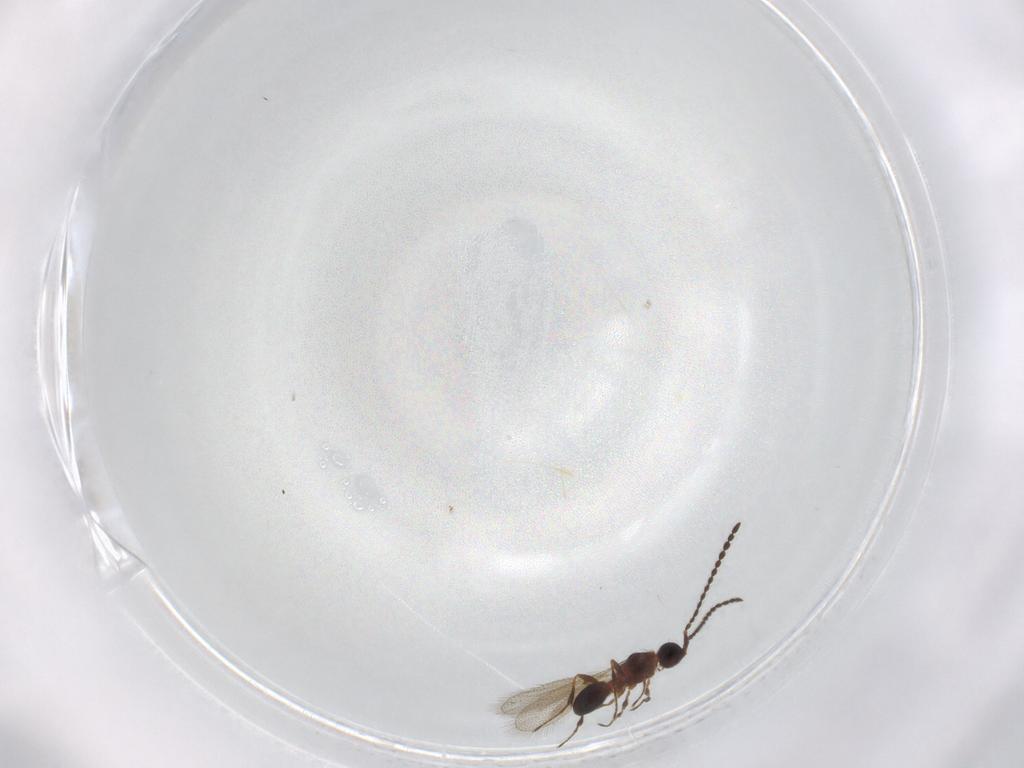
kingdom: Animalia
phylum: Arthropoda
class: Insecta
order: Hymenoptera
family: Diapriidae
